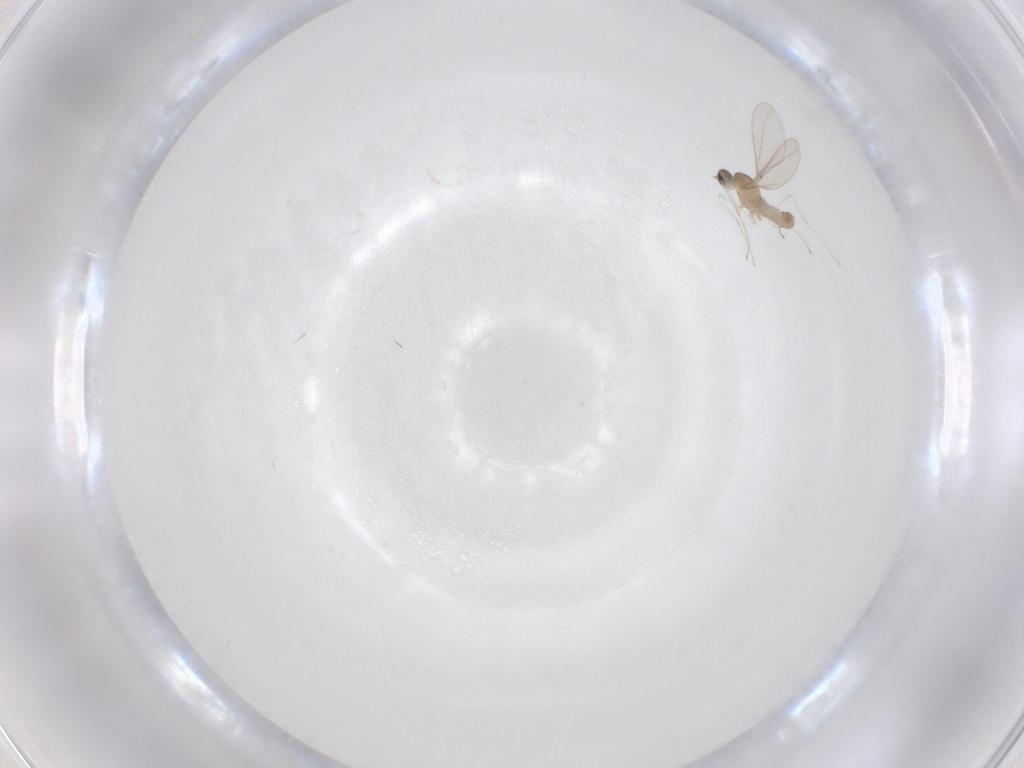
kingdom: Animalia
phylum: Arthropoda
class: Insecta
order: Diptera
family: Cecidomyiidae
